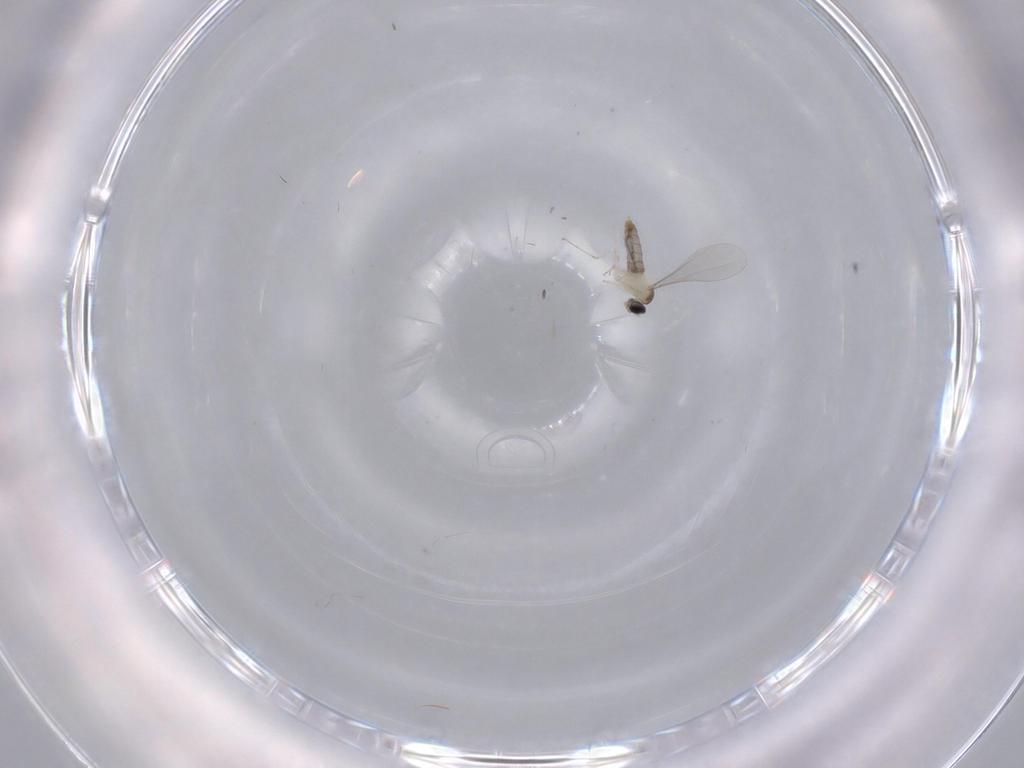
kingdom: Animalia
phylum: Arthropoda
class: Insecta
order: Diptera
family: Cecidomyiidae
